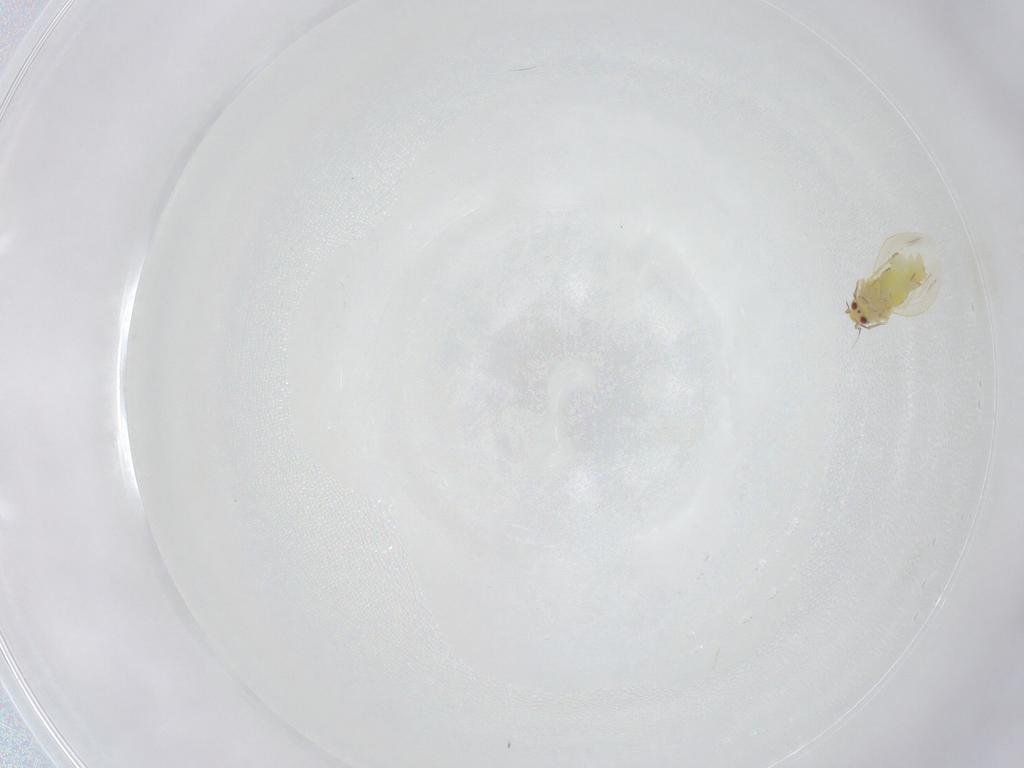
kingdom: Animalia
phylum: Arthropoda
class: Insecta
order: Hemiptera
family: Aleyrodidae
